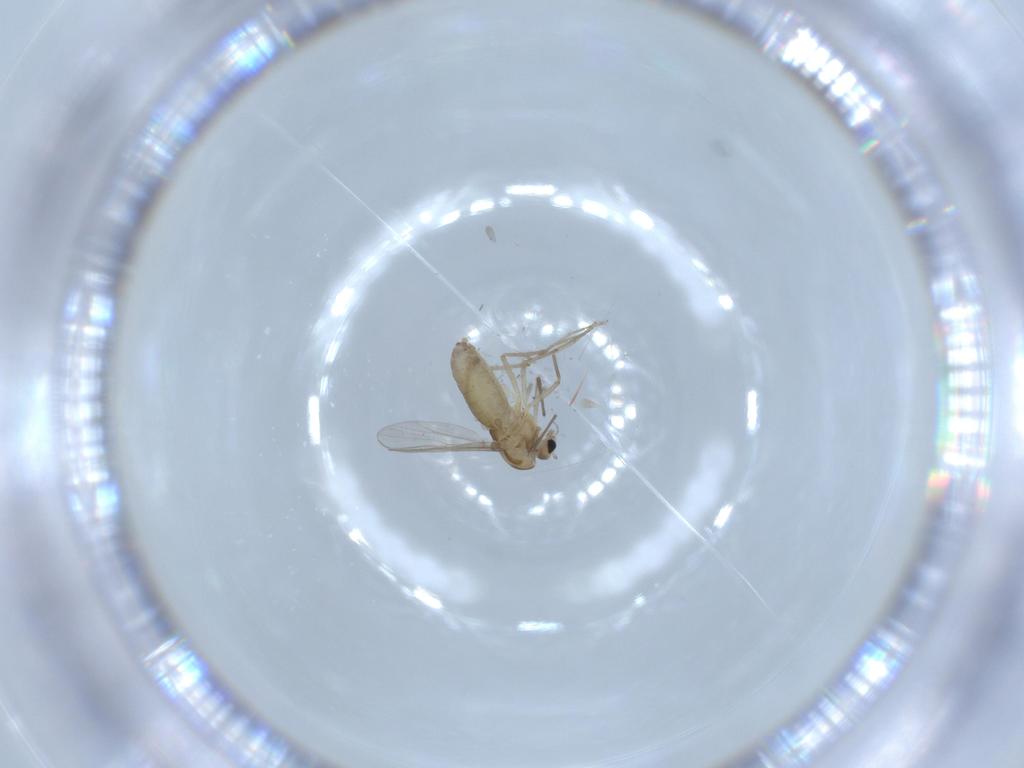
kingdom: Animalia
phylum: Arthropoda
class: Insecta
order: Diptera
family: Chironomidae
